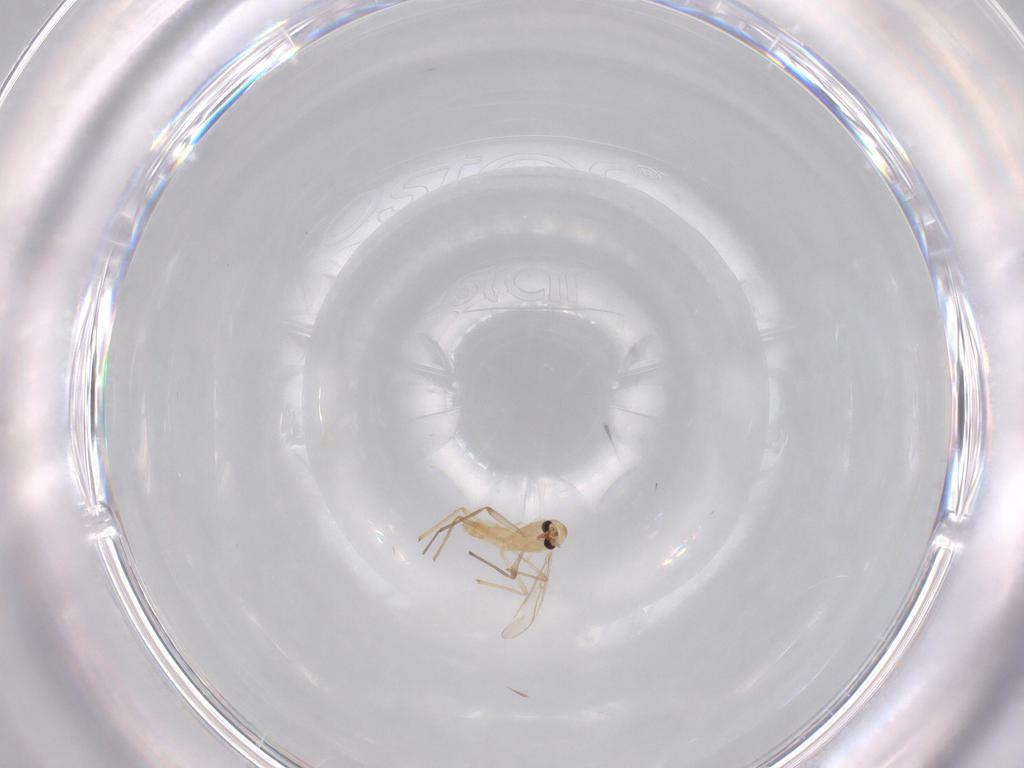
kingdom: Animalia
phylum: Arthropoda
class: Insecta
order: Diptera
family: Chironomidae
